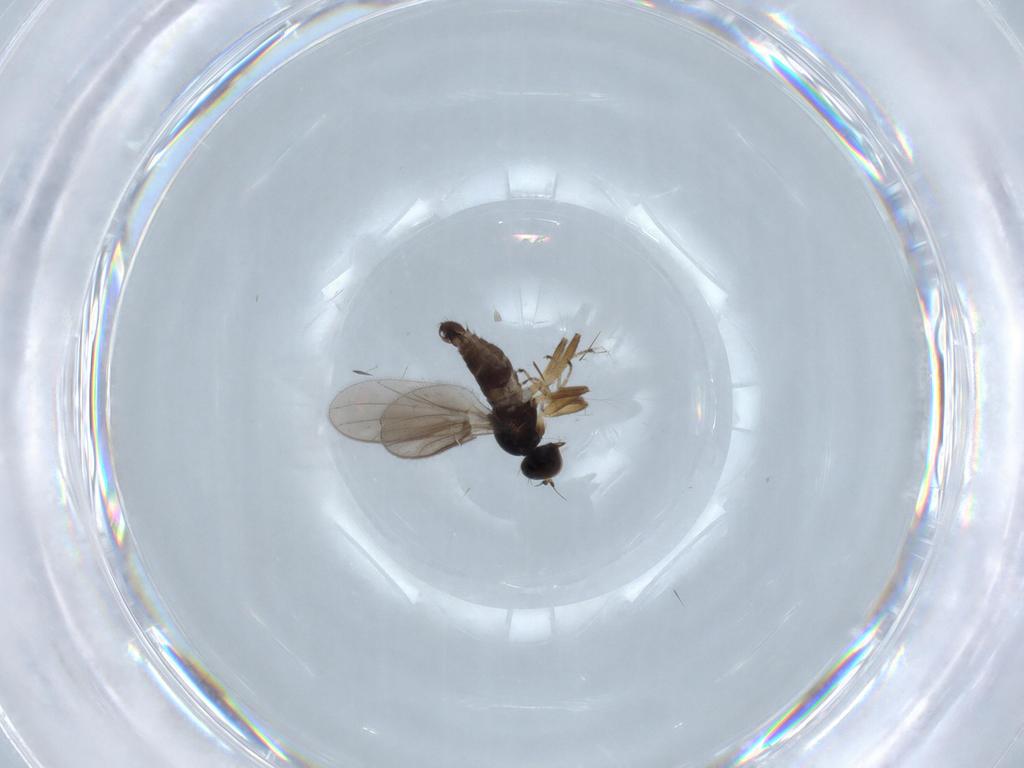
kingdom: Animalia
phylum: Arthropoda
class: Insecta
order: Diptera
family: Hybotidae
